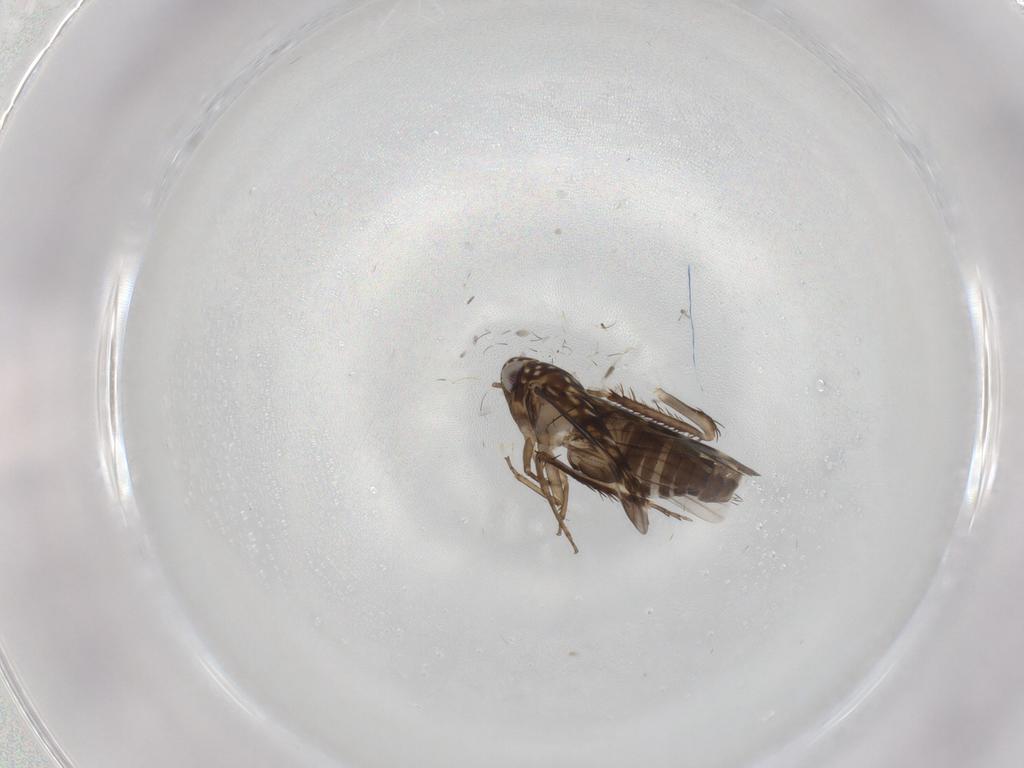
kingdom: Animalia
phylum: Arthropoda
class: Insecta
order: Hemiptera
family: Cicadellidae
